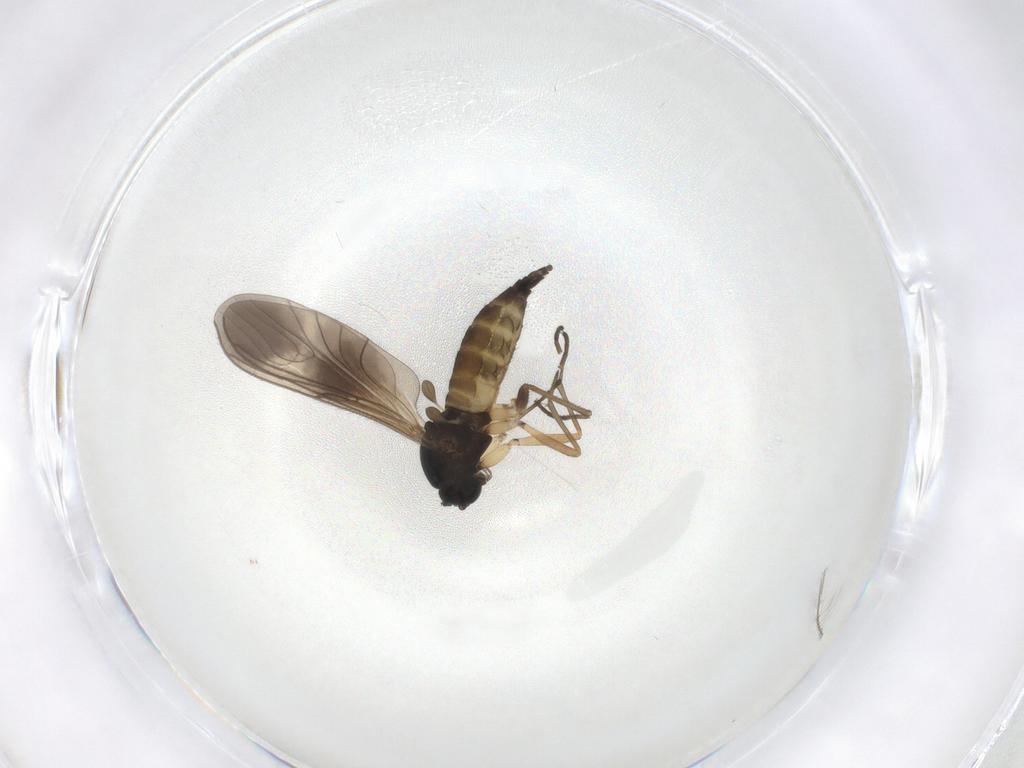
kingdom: Animalia
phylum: Arthropoda
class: Insecta
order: Diptera
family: Sciaridae
